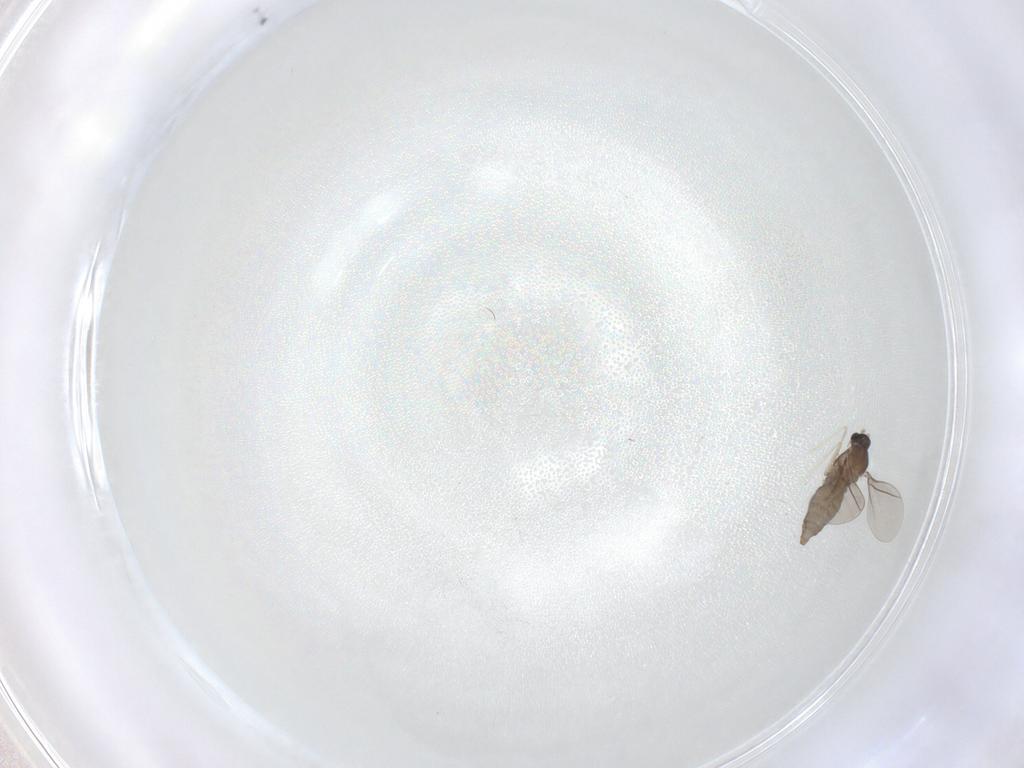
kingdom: Animalia
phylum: Arthropoda
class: Insecta
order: Diptera
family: Cecidomyiidae
